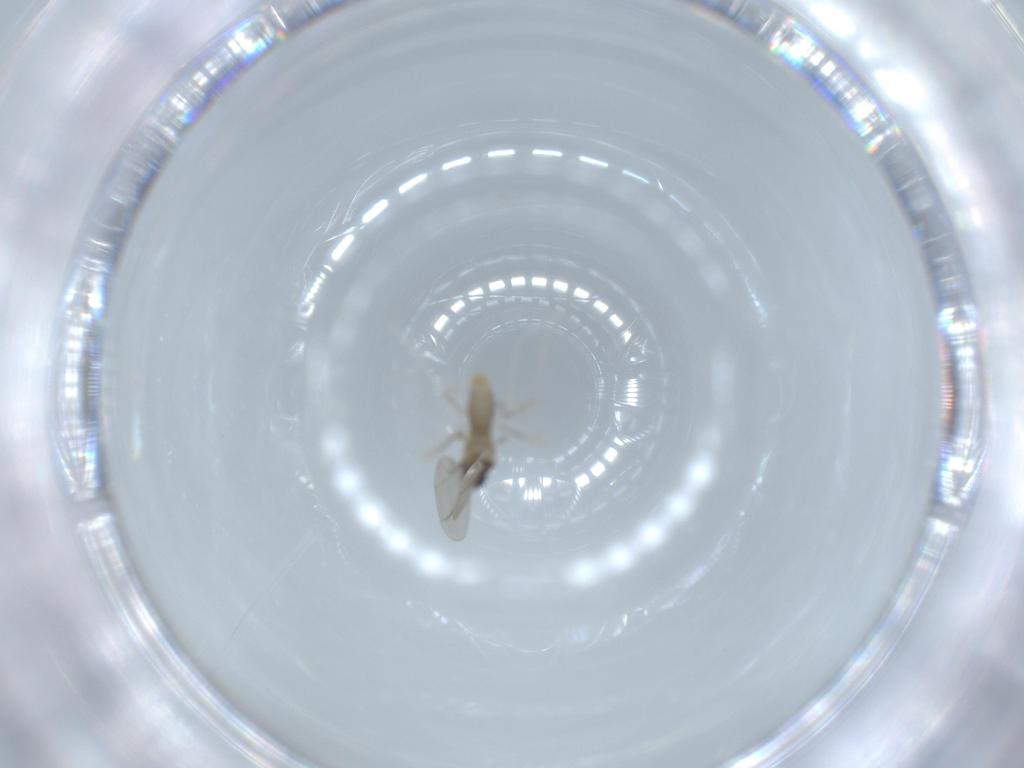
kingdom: Animalia
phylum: Arthropoda
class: Insecta
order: Diptera
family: Cecidomyiidae
